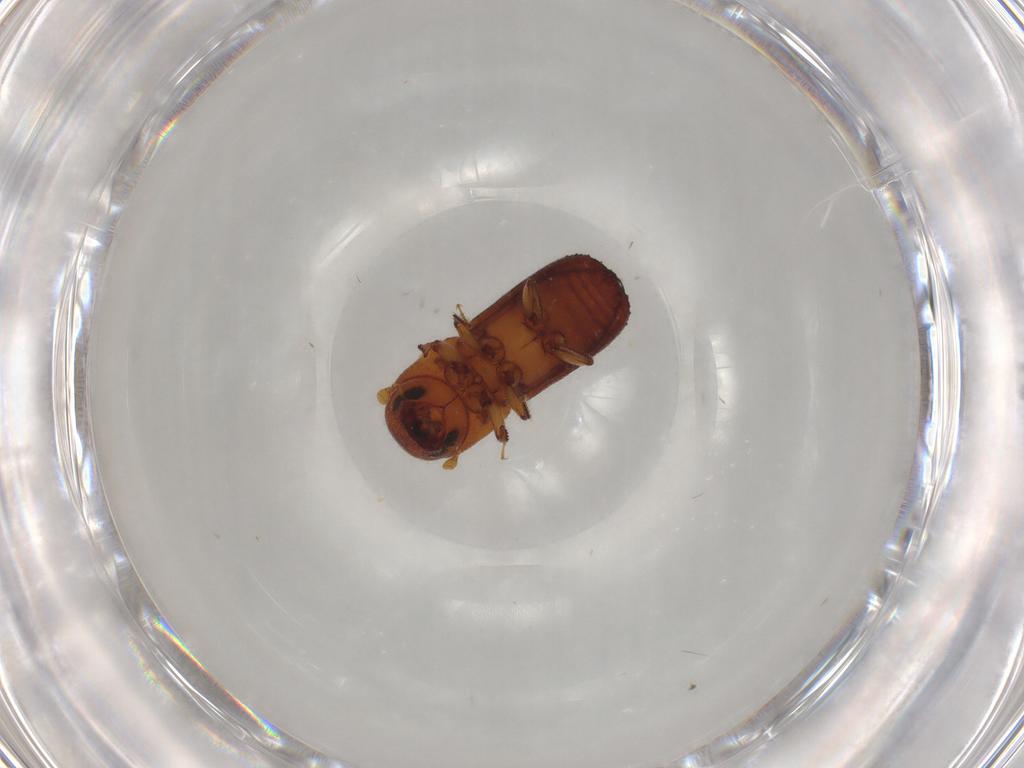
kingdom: Animalia
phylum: Arthropoda
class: Insecta
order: Coleoptera
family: Curculionidae
